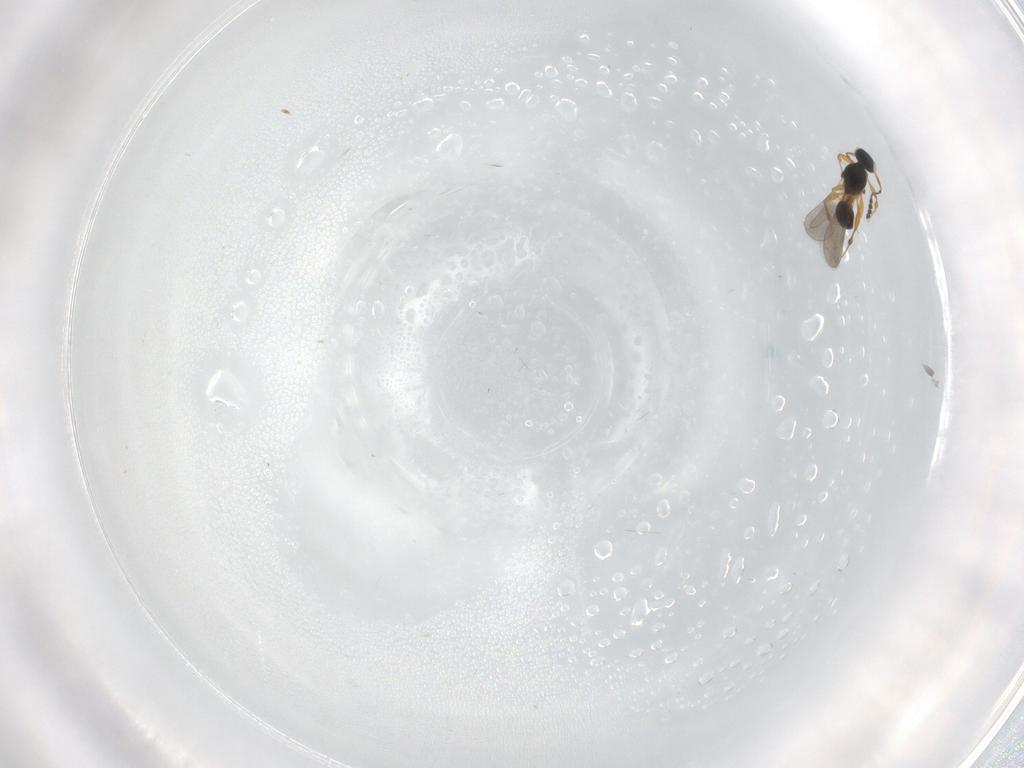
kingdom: Animalia
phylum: Arthropoda
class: Insecta
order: Hymenoptera
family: Platygastridae
